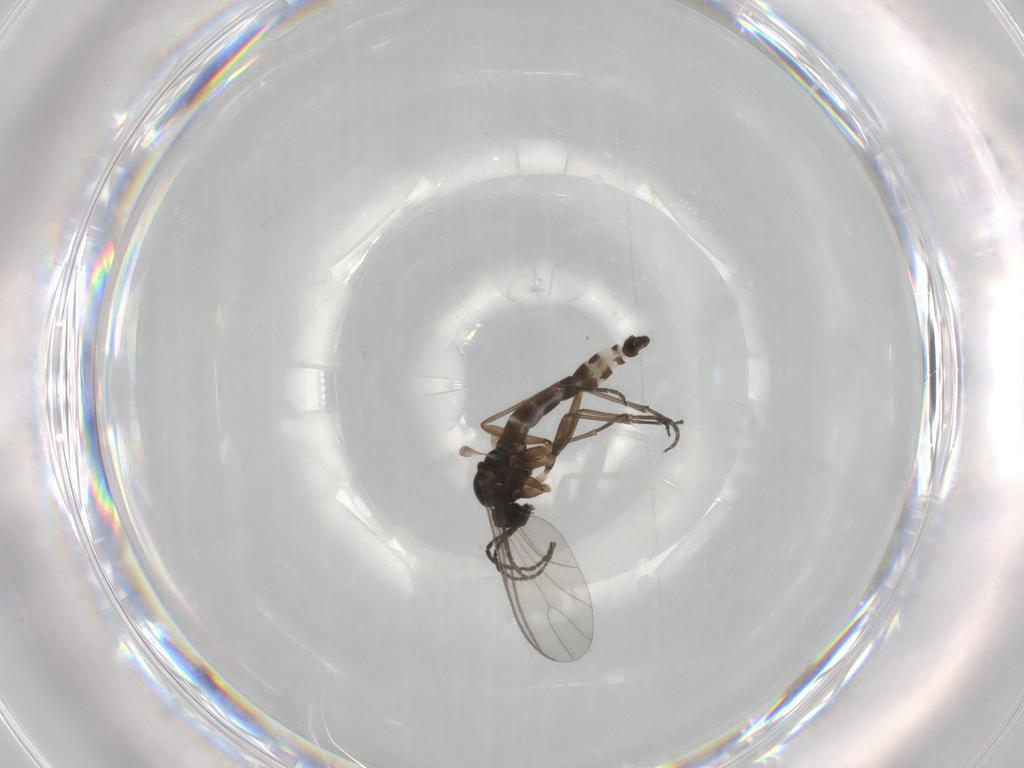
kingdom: Animalia
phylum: Arthropoda
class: Insecta
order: Diptera
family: Sciaridae
